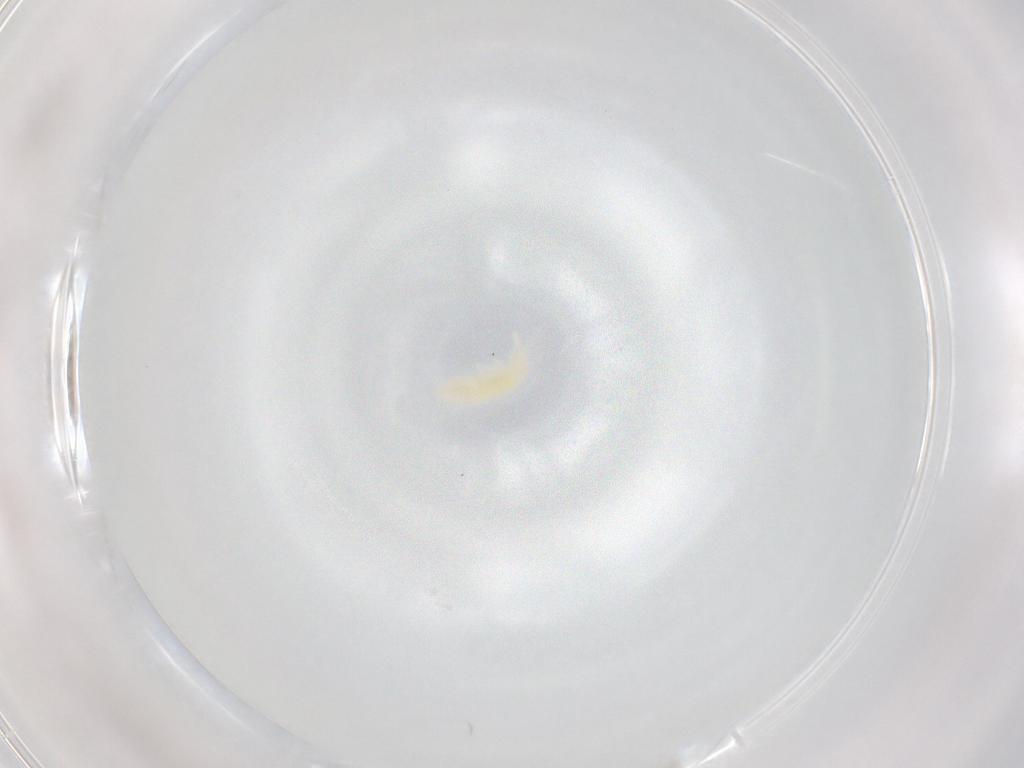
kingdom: Animalia
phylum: Arthropoda
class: Collembola
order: Poduromorpha
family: Onychiuridae
